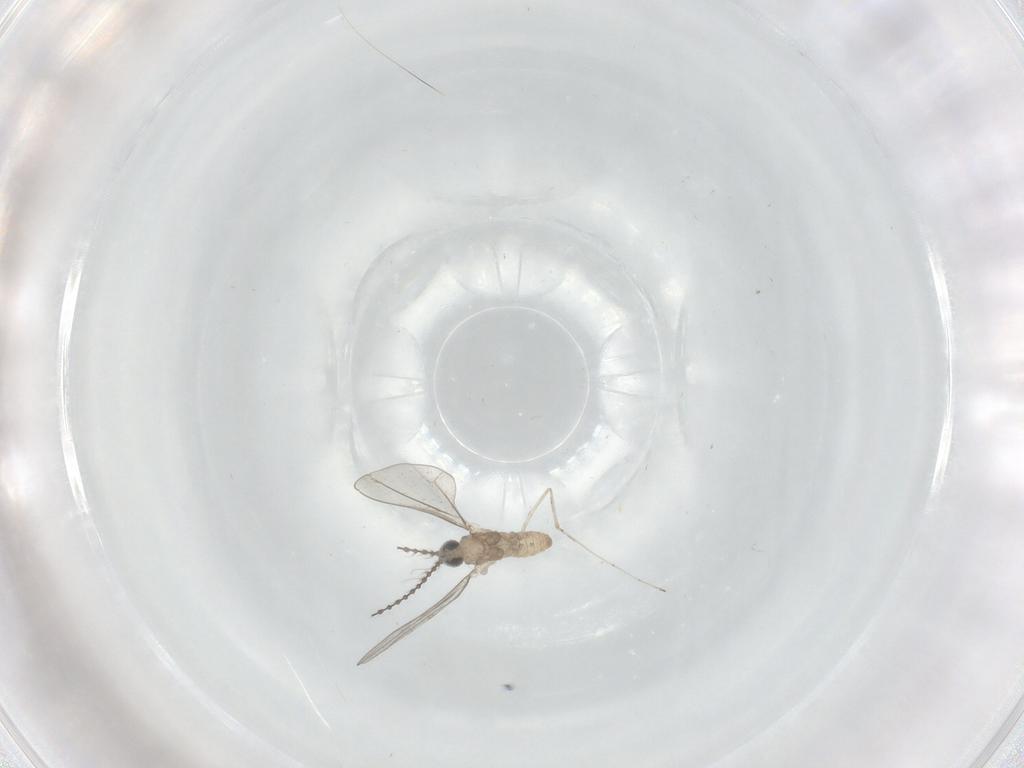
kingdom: Animalia
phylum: Arthropoda
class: Insecta
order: Diptera
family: Cecidomyiidae
